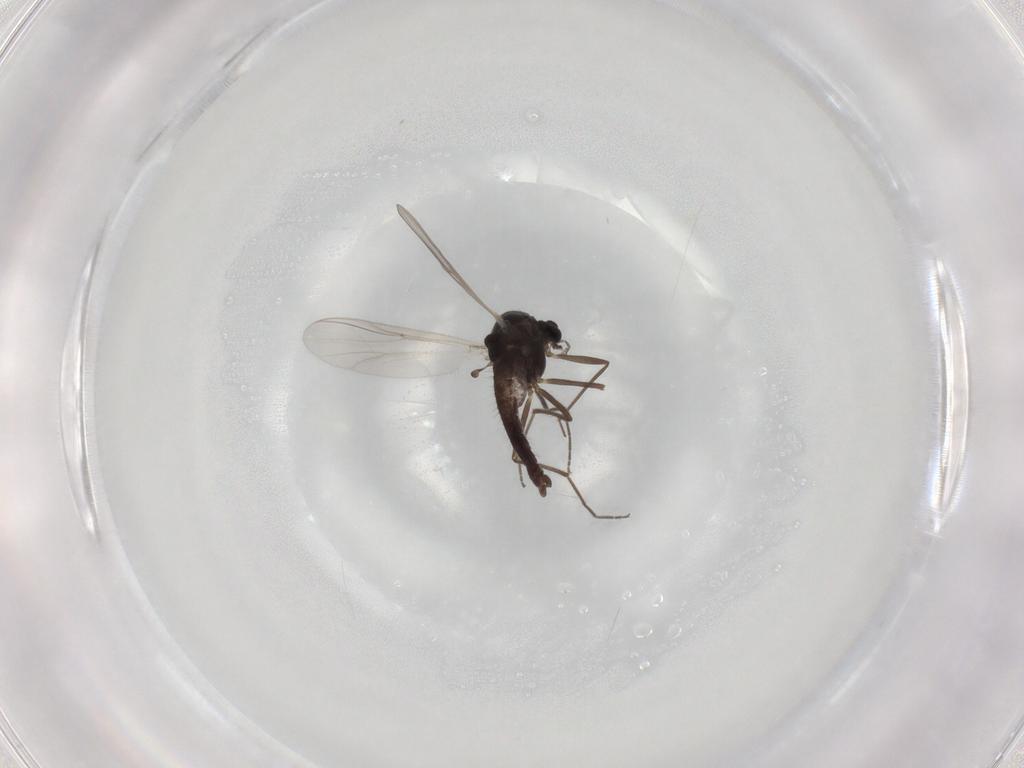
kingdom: Animalia
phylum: Arthropoda
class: Insecta
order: Diptera
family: Chironomidae
